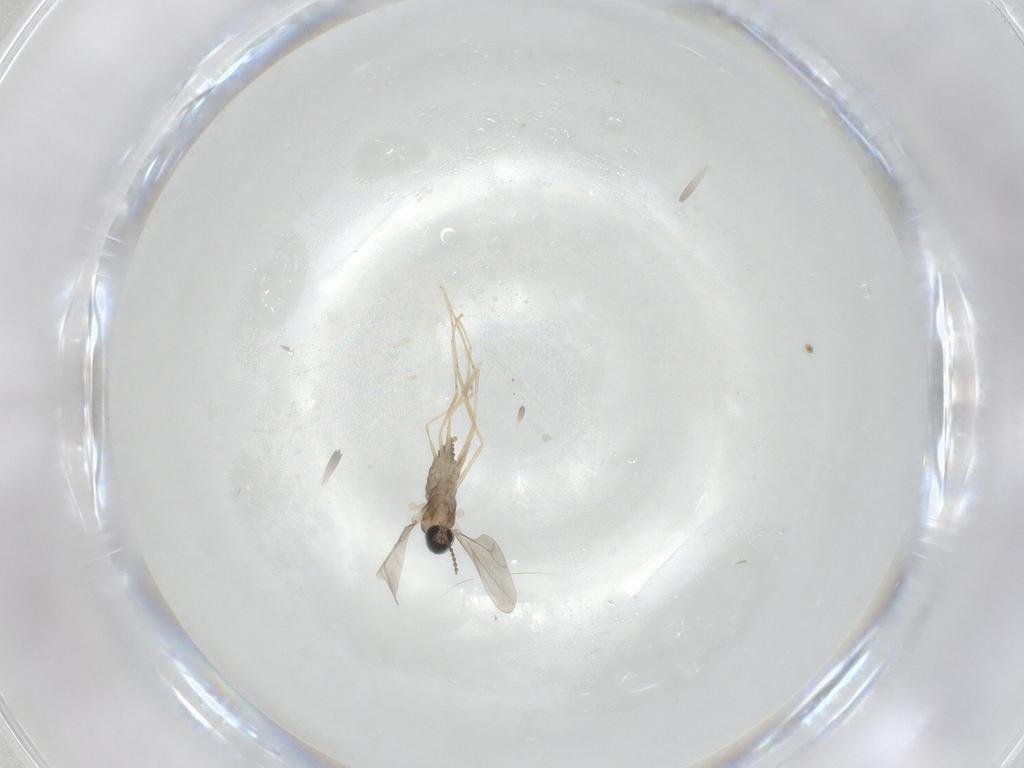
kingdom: Animalia
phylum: Arthropoda
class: Insecta
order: Diptera
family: Cecidomyiidae
